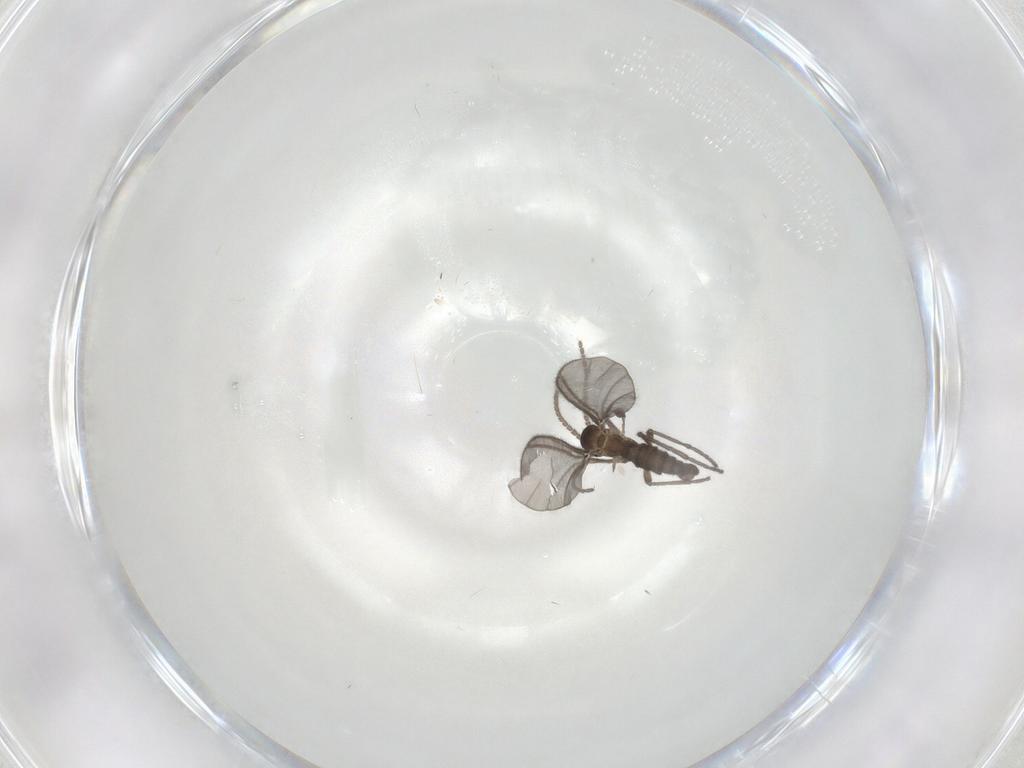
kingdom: Animalia
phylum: Arthropoda
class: Insecta
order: Diptera
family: Sciaridae
